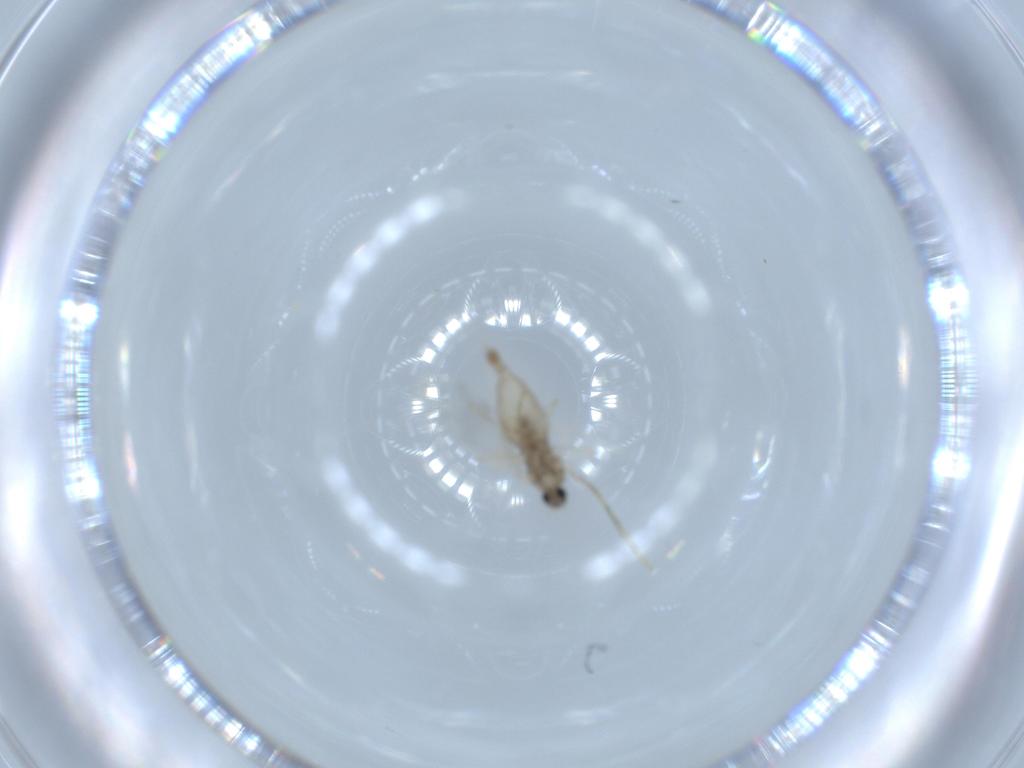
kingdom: Animalia
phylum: Arthropoda
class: Insecta
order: Diptera
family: Cecidomyiidae
